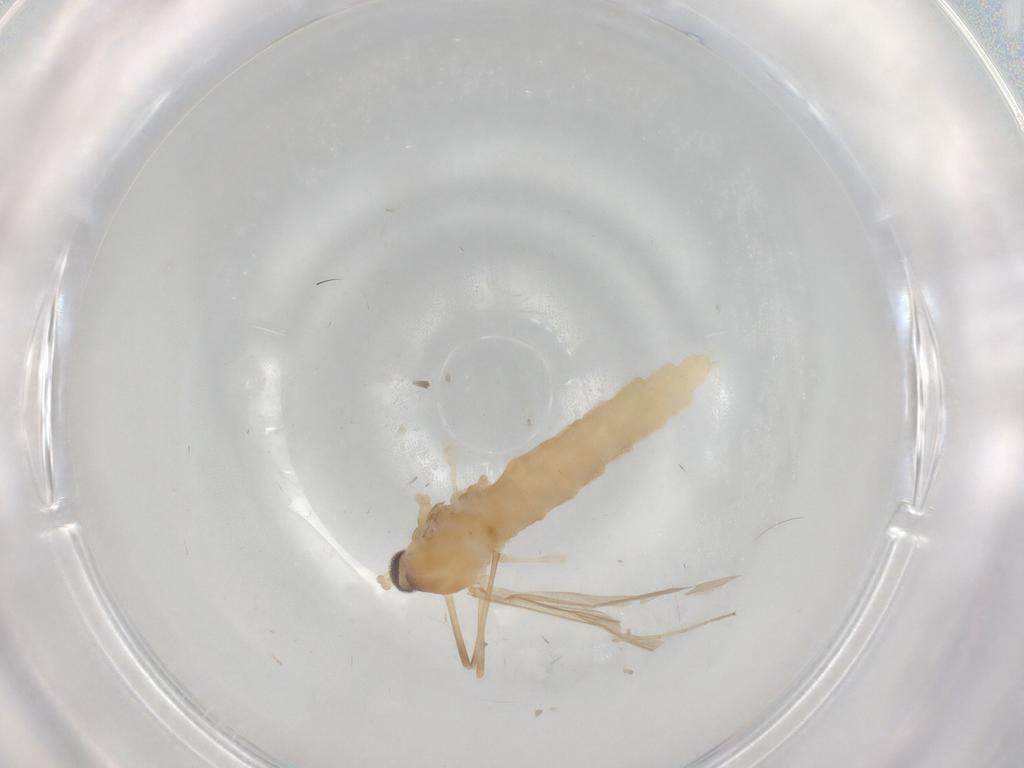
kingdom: Animalia
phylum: Arthropoda
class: Insecta
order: Diptera
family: Chironomidae
